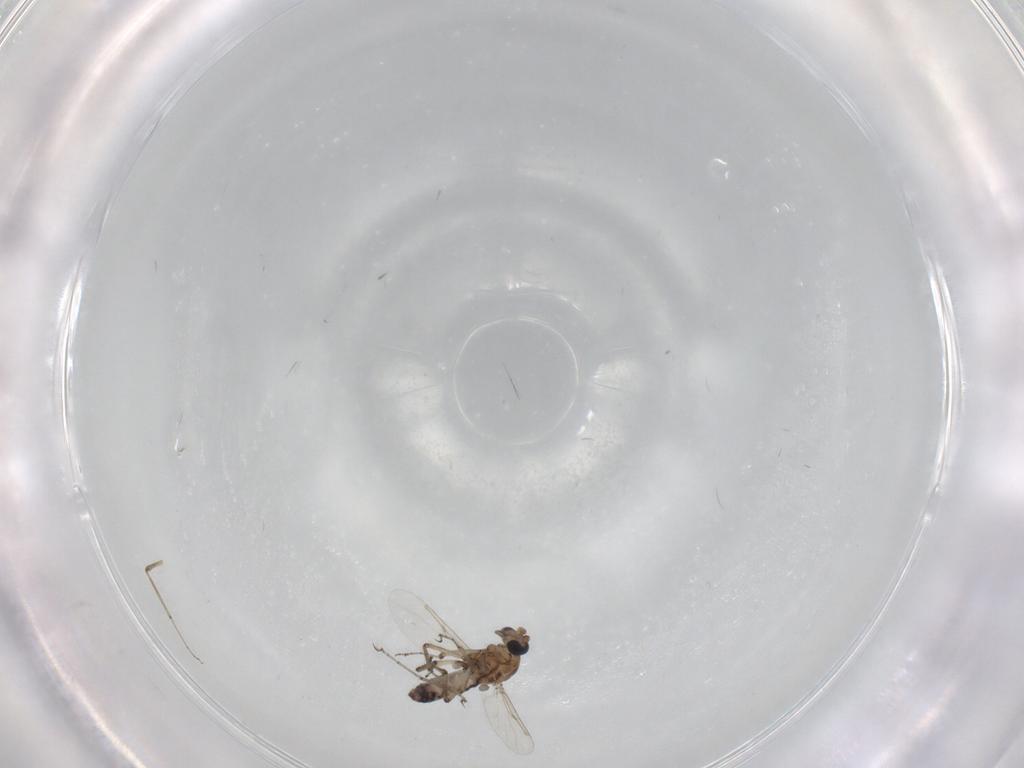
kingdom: Animalia
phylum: Arthropoda
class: Insecta
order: Diptera
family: Ceratopogonidae
